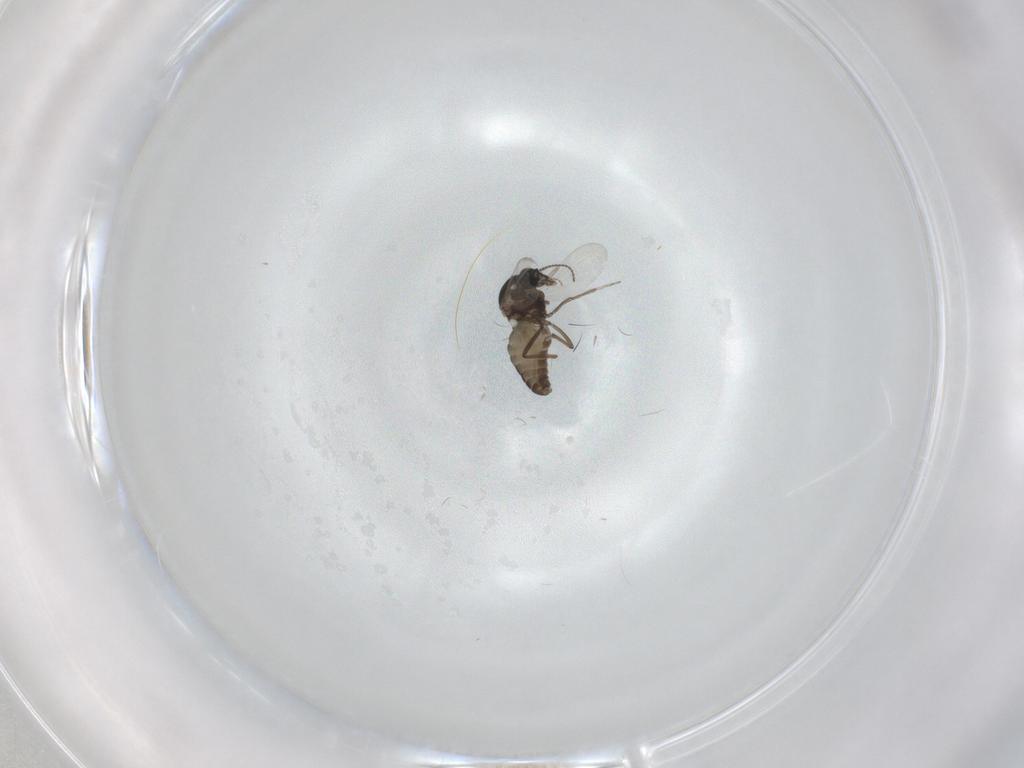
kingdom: Animalia
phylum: Arthropoda
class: Insecta
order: Diptera
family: Ceratopogonidae
